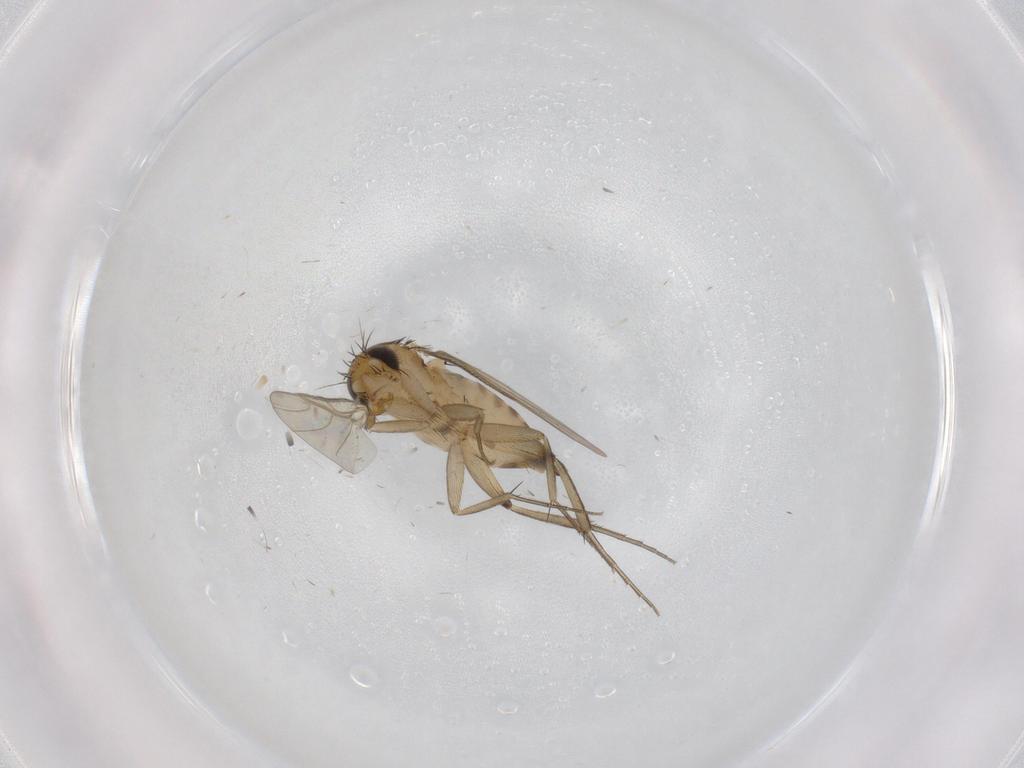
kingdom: Animalia
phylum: Arthropoda
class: Insecta
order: Diptera
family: Phoridae
